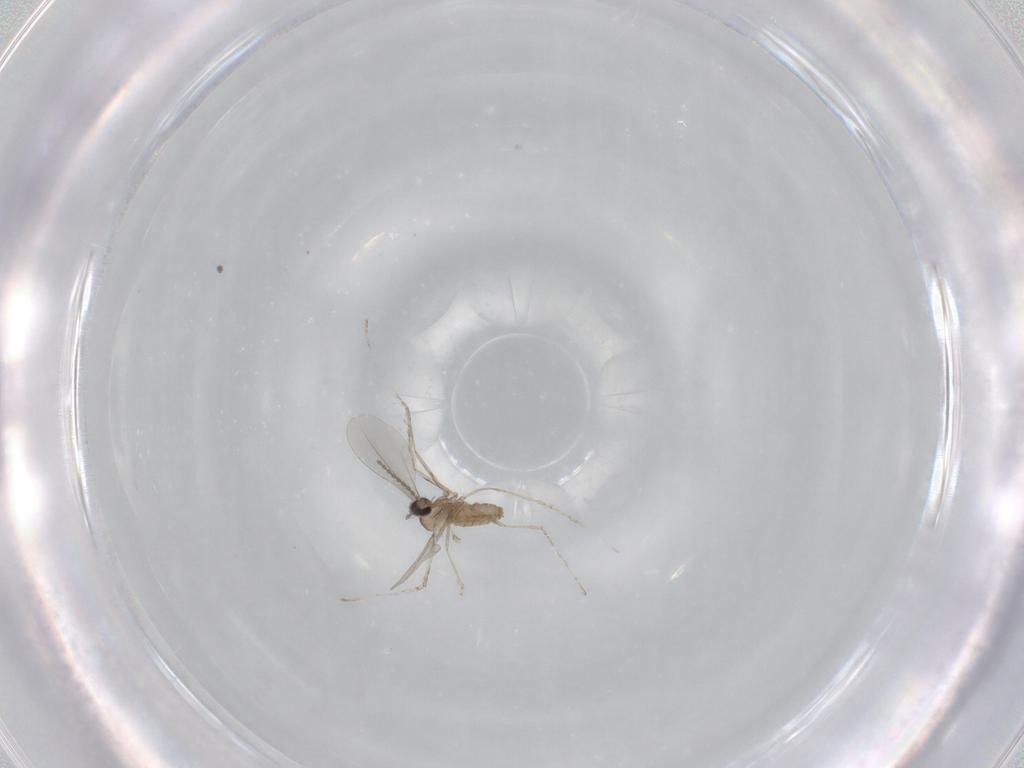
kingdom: Animalia
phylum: Arthropoda
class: Insecta
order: Diptera
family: Cecidomyiidae
